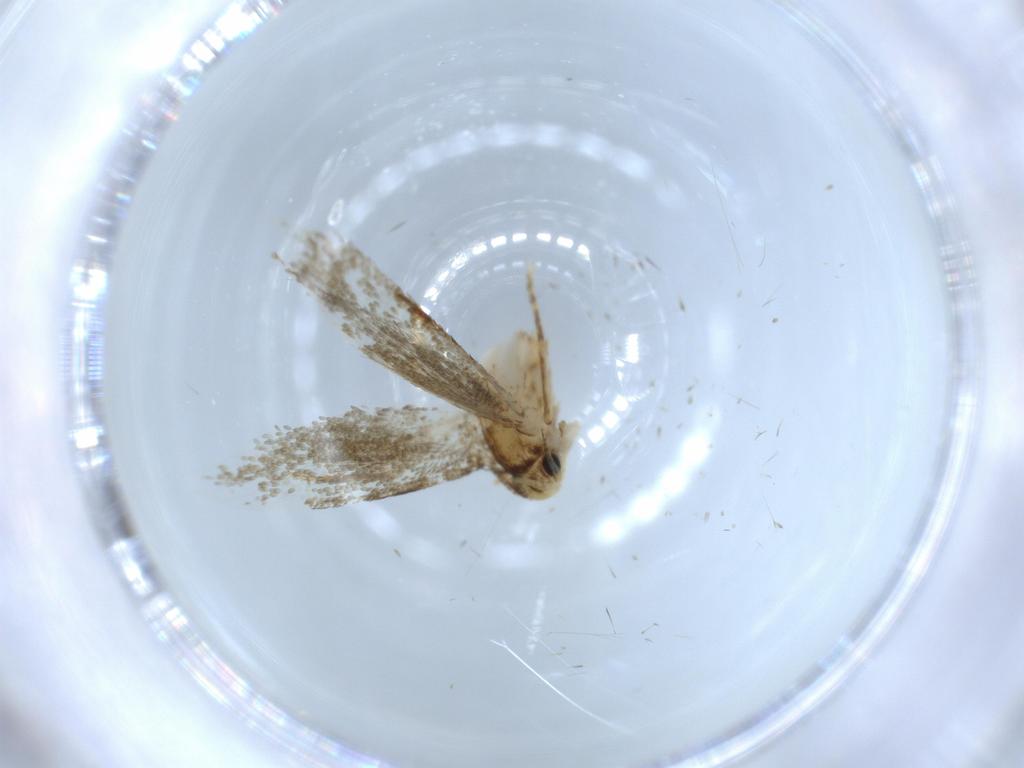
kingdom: Animalia
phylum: Arthropoda
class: Insecta
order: Lepidoptera
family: Tineidae
